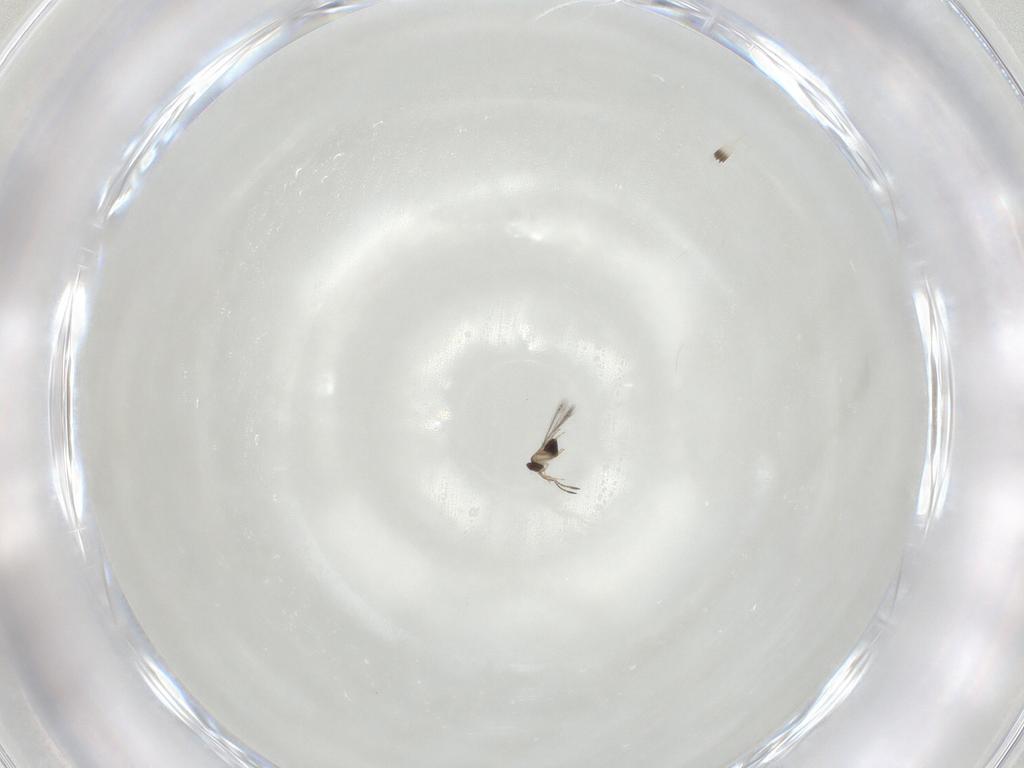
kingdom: Animalia
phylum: Arthropoda
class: Insecta
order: Hymenoptera
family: Mymaridae
